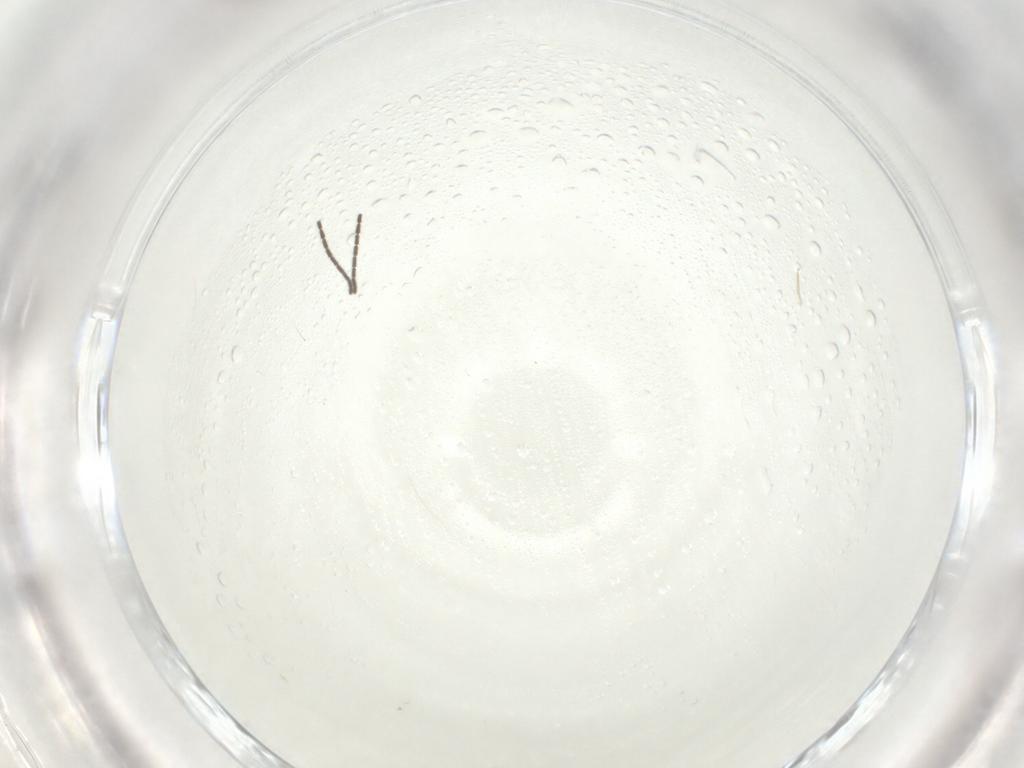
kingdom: Animalia
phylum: Arthropoda
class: Insecta
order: Diptera
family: Cecidomyiidae
